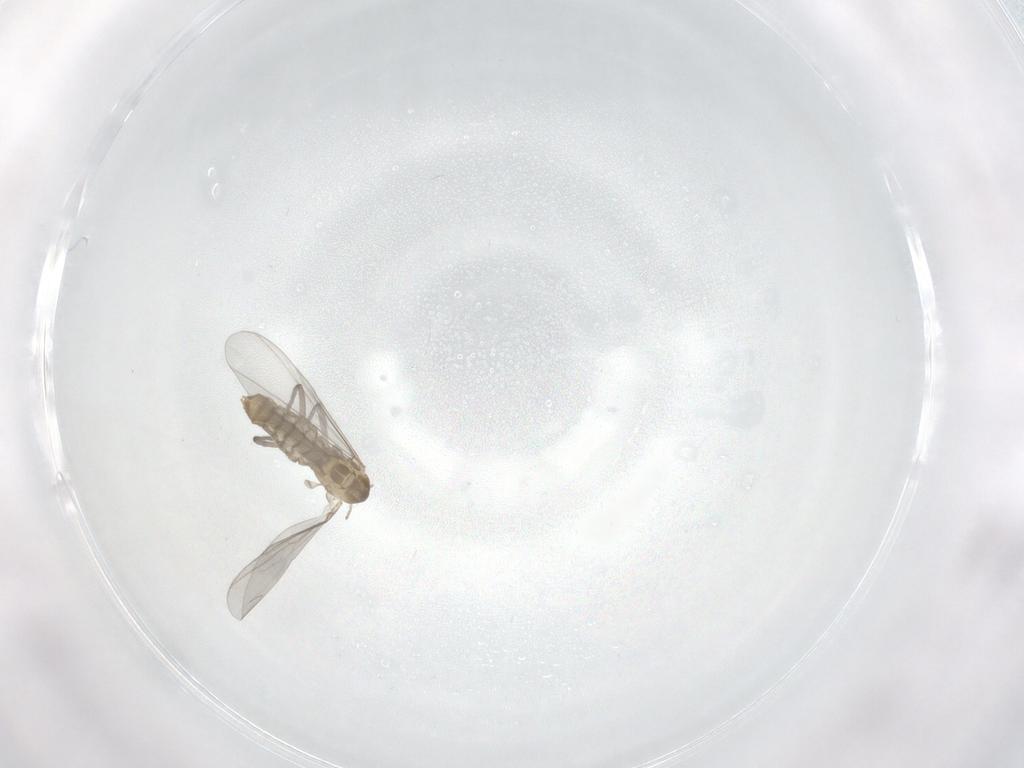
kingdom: Animalia
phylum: Arthropoda
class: Insecta
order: Diptera
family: Chironomidae
